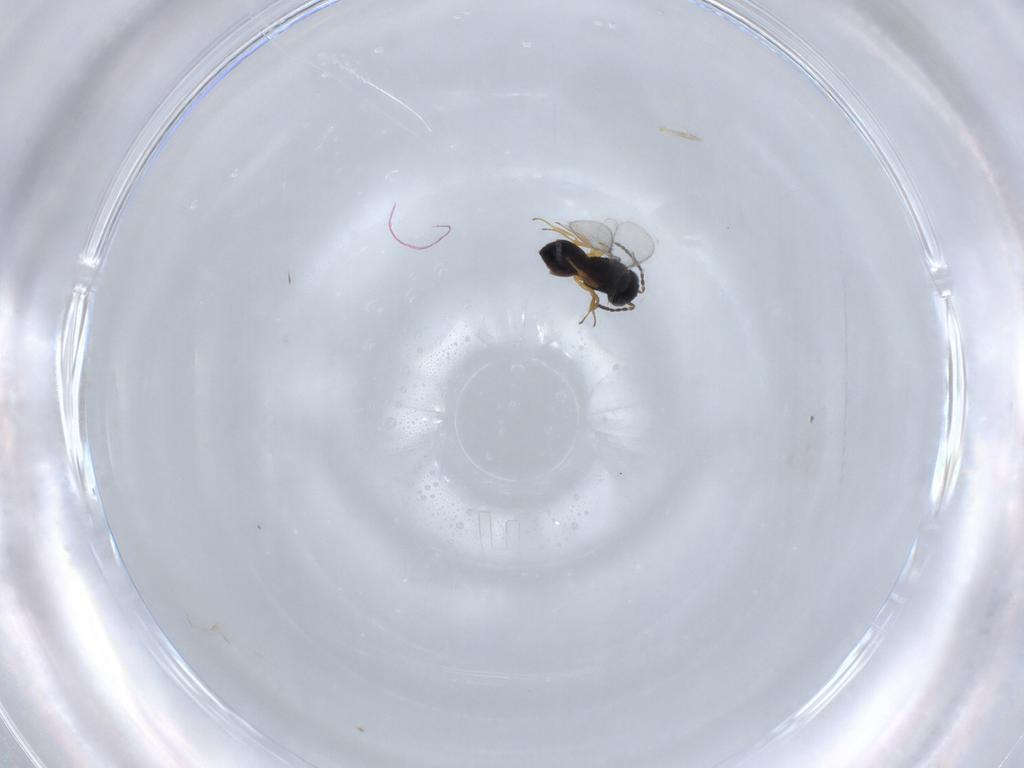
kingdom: Animalia
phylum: Arthropoda
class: Insecta
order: Hymenoptera
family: Scelionidae
